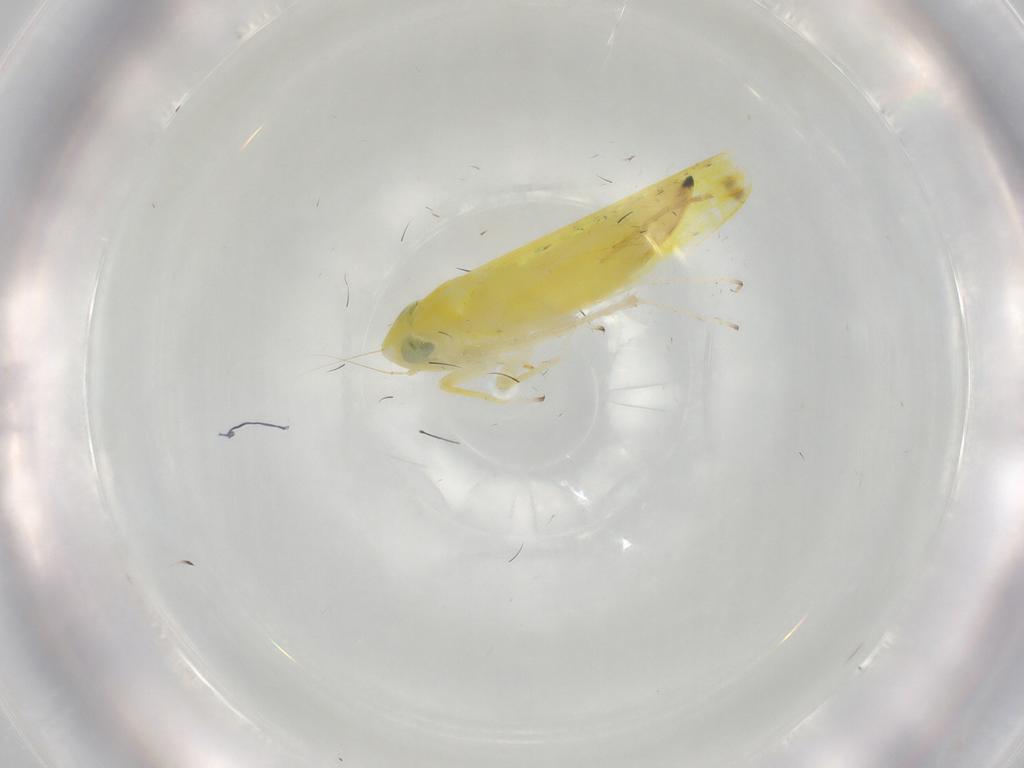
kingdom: Animalia
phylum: Arthropoda
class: Insecta
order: Hemiptera
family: Cicadellidae
